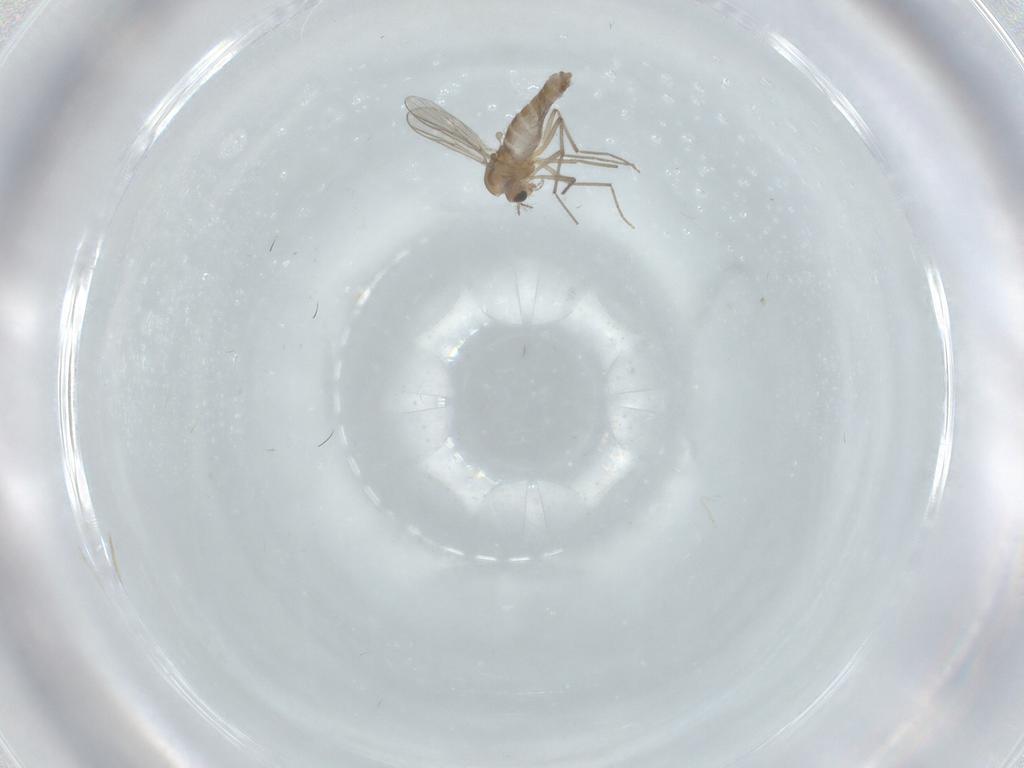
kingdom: Animalia
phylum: Arthropoda
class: Insecta
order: Diptera
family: Chironomidae
